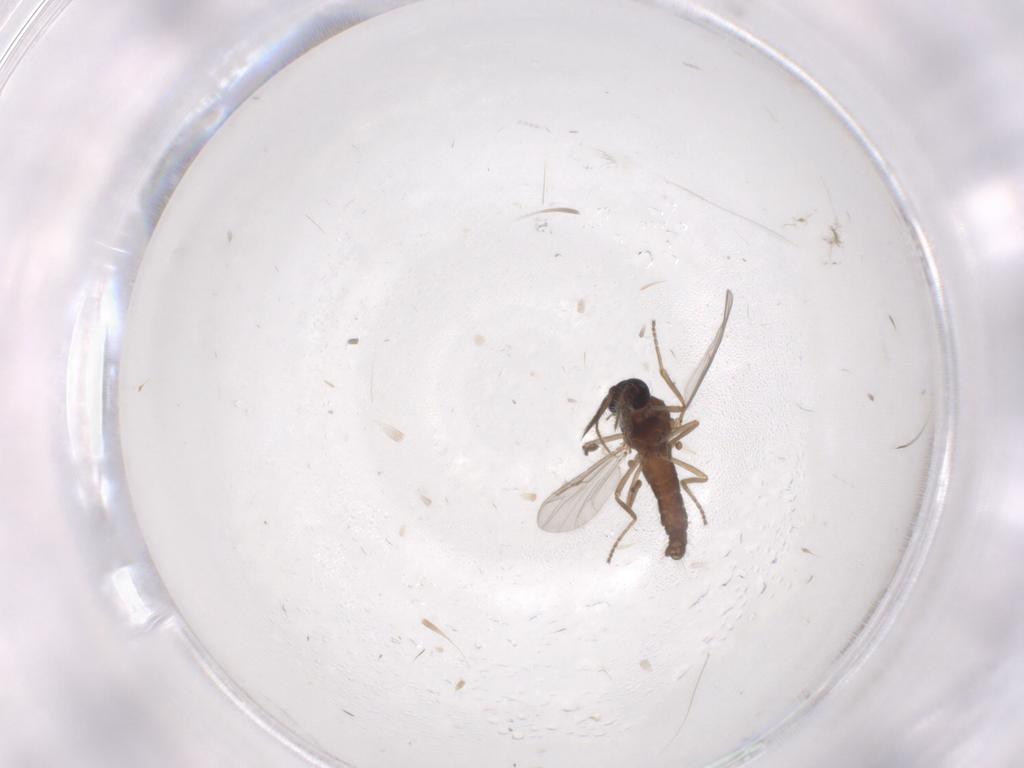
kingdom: Animalia
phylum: Arthropoda
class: Insecta
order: Diptera
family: Ceratopogonidae
